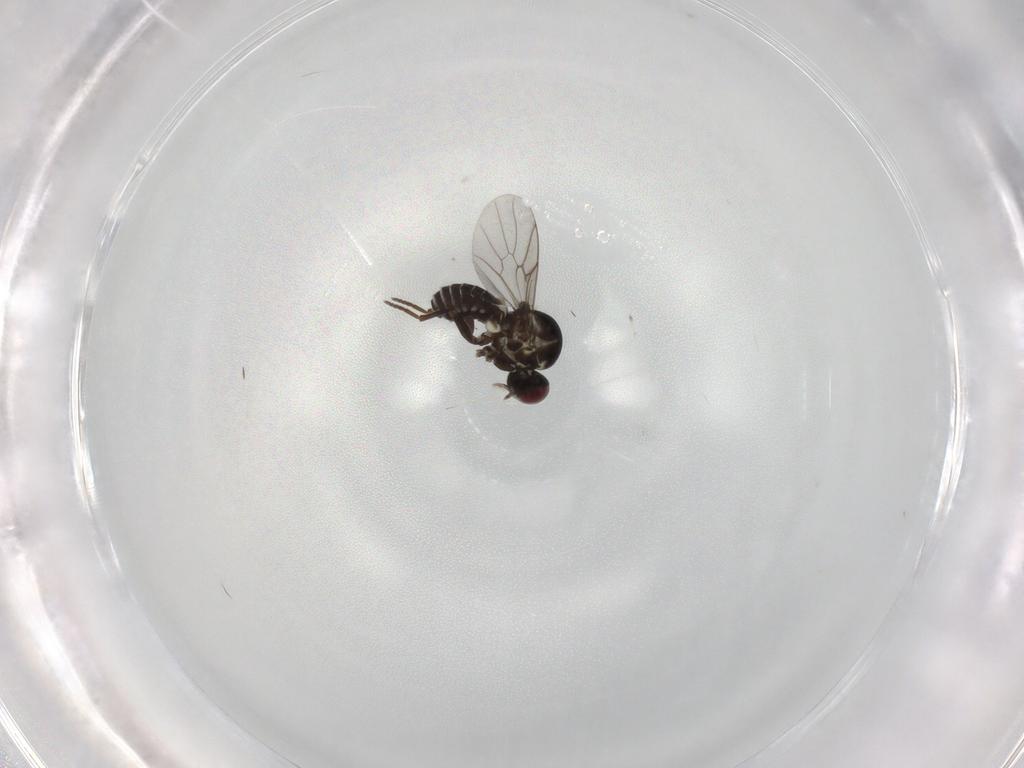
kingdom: Animalia
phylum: Arthropoda
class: Insecta
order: Diptera
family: Mythicomyiidae
